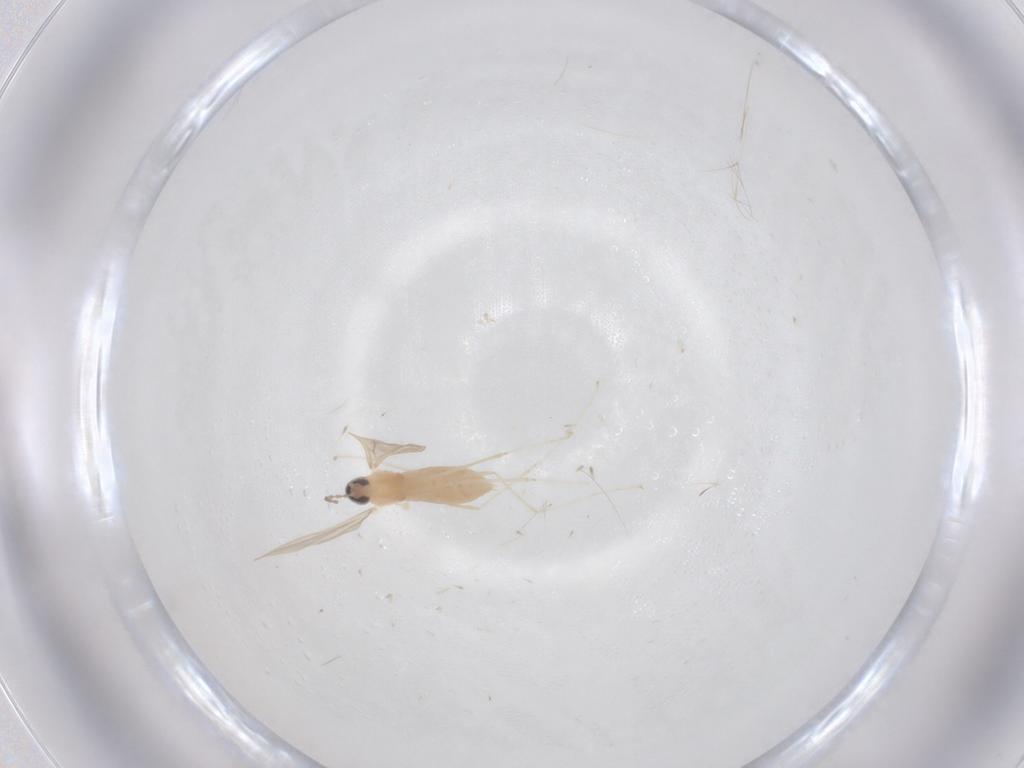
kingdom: Animalia
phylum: Arthropoda
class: Insecta
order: Diptera
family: Cecidomyiidae
